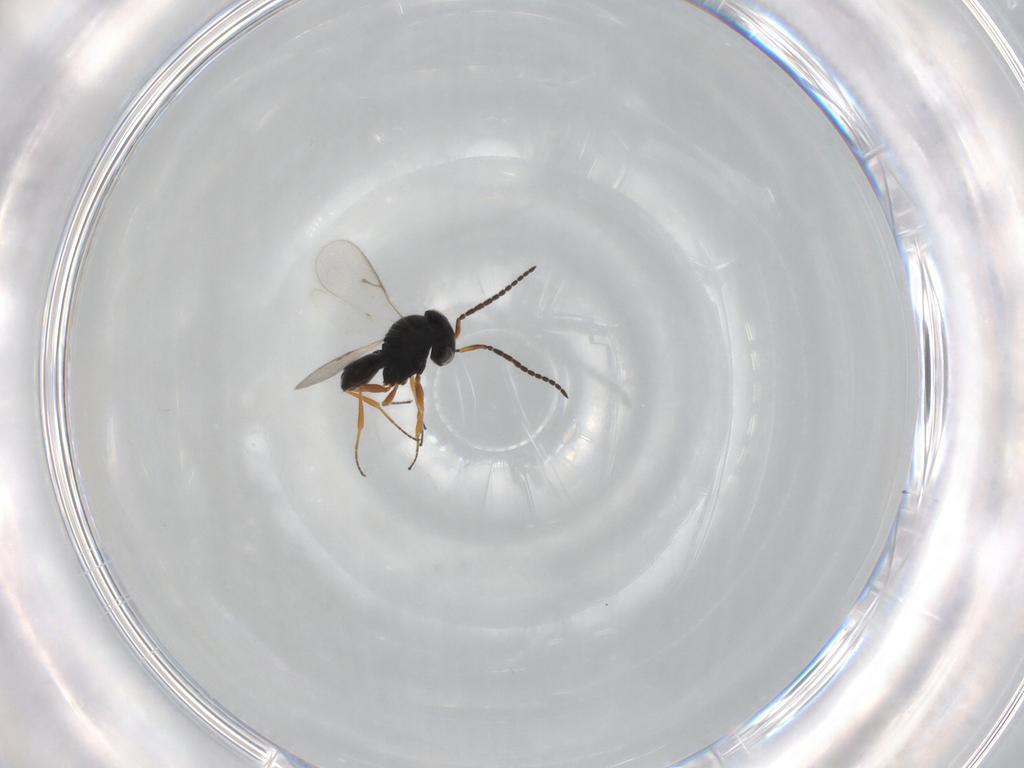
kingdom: Animalia
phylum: Arthropoda
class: Insecta
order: Hymenoptera
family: Scelionidae
